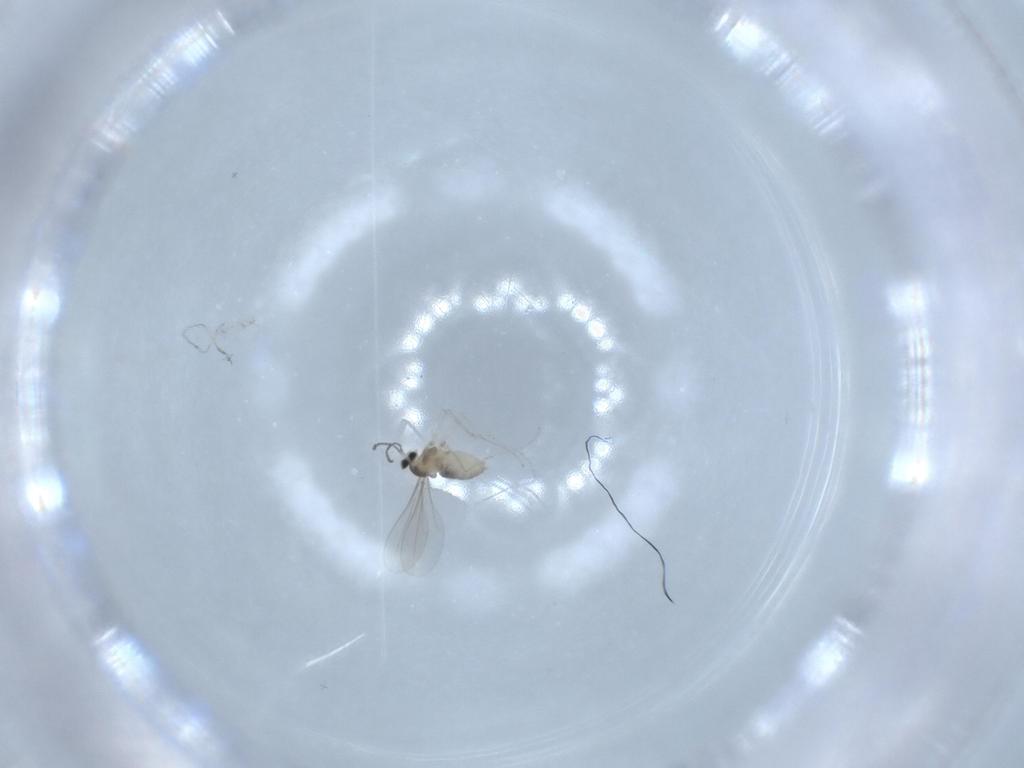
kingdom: Animalia
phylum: Arthropoda
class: Insecta
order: Diptera
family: Cecidomyiidae
